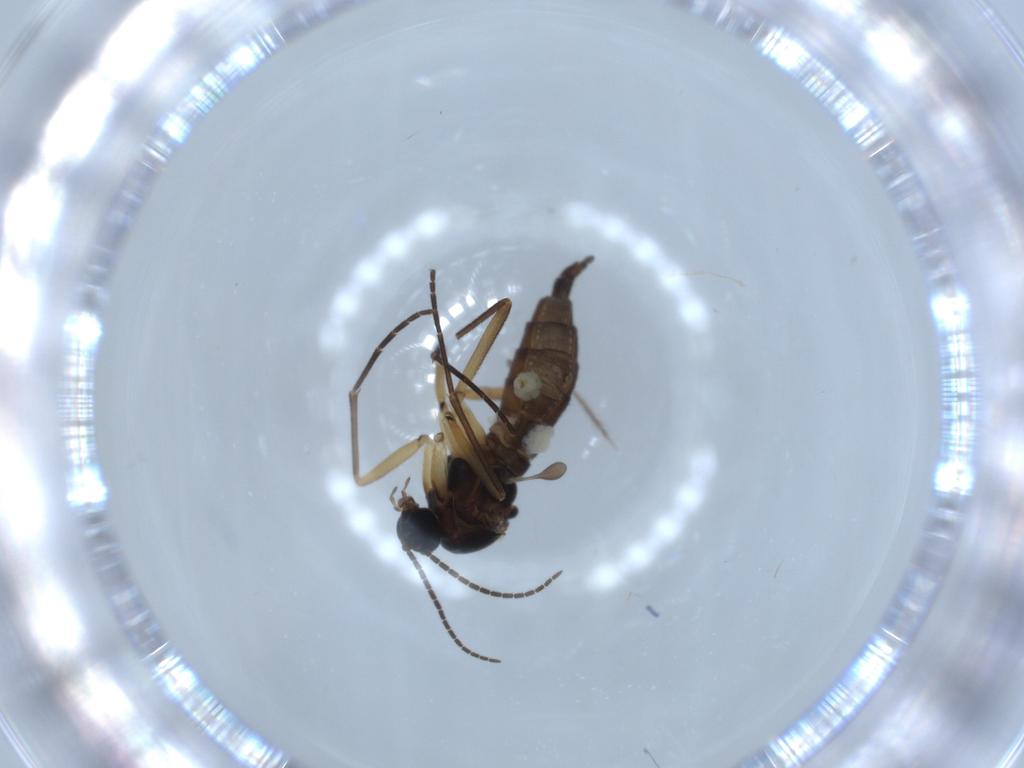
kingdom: Animalia
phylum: Arthropoda
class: Insecta
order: Diptera
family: Sciaridae
